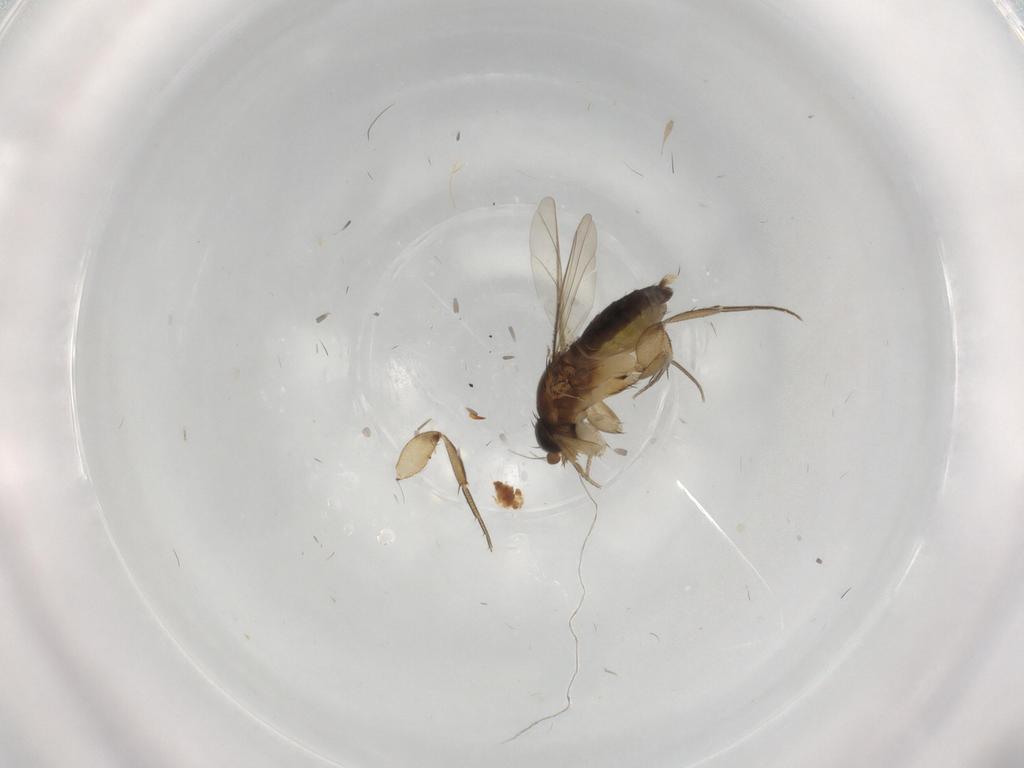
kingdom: Animalia
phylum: Arthropoda
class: Insecta
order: Diptera
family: Phoridae
